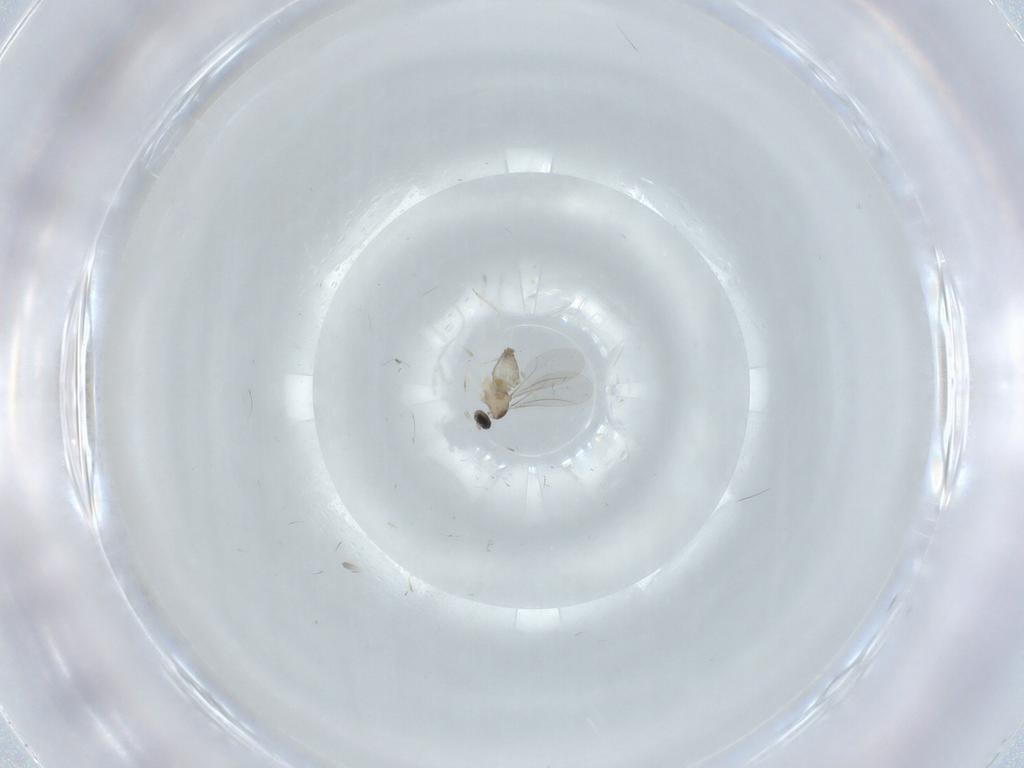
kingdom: Animalia
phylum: Arthropoda
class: Insecta
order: Diptera
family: Cecidomyiidae
